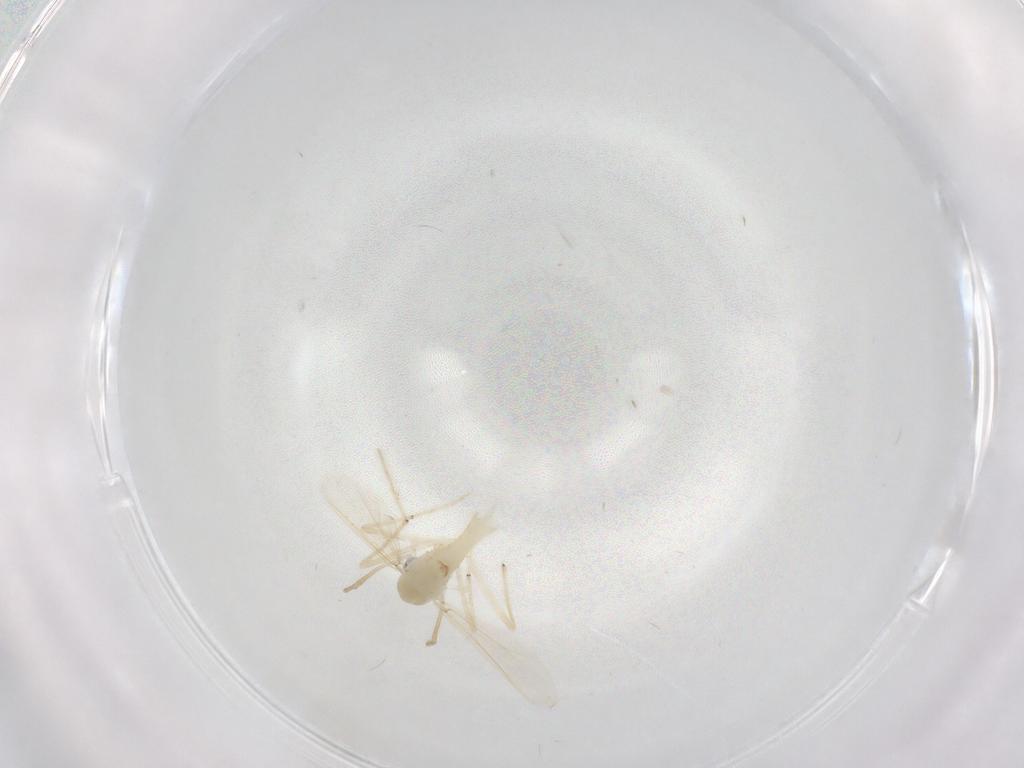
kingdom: Animalia
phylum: Arthropoda
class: Insecta
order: Diptera
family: Chironomidae
